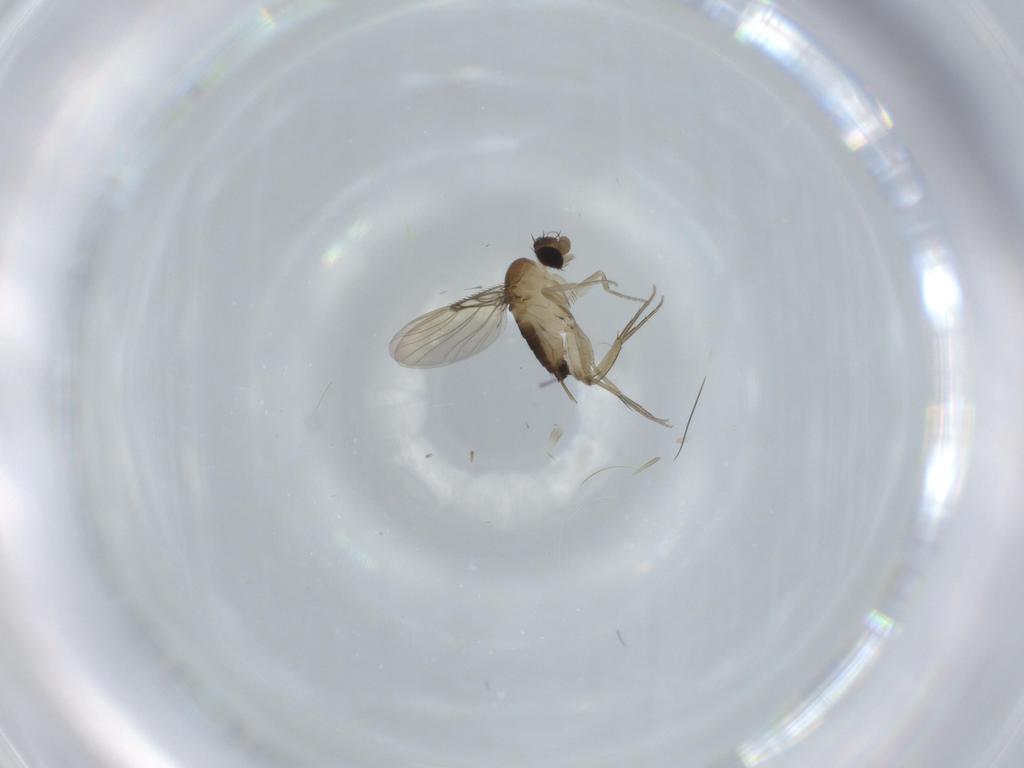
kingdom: Animalia
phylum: Arthropoda
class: Insecta
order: Diptera
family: Phoridae
